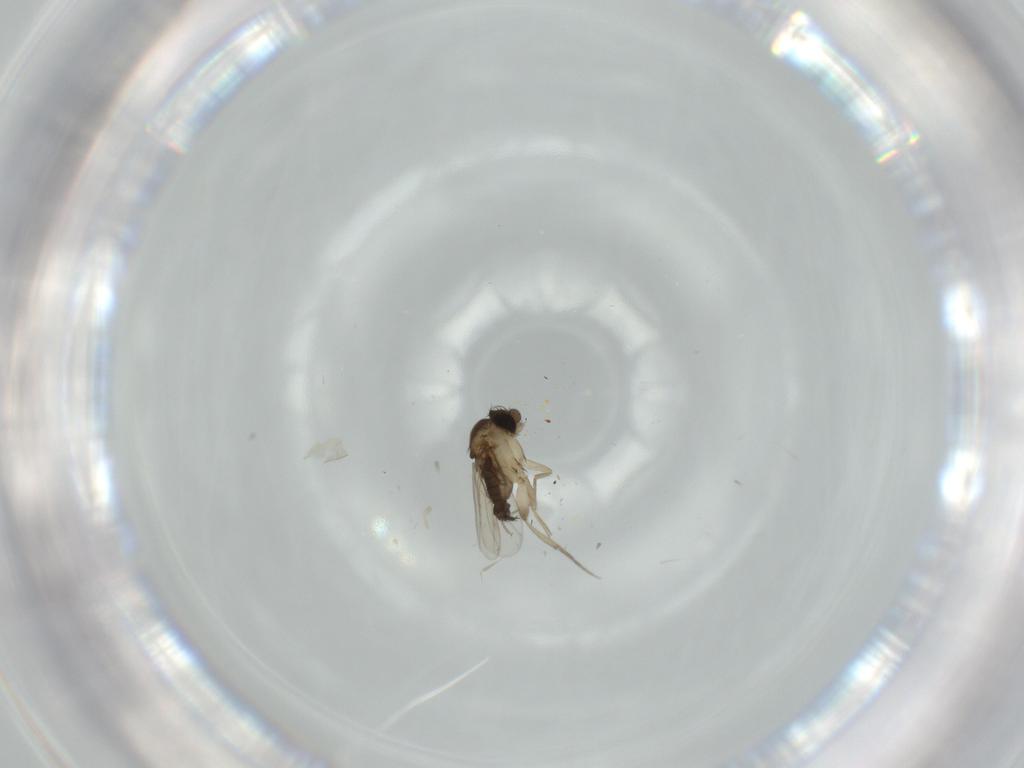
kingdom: Animalia
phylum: Arthropoda
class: Insecta
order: Diptera
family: Phoridae
